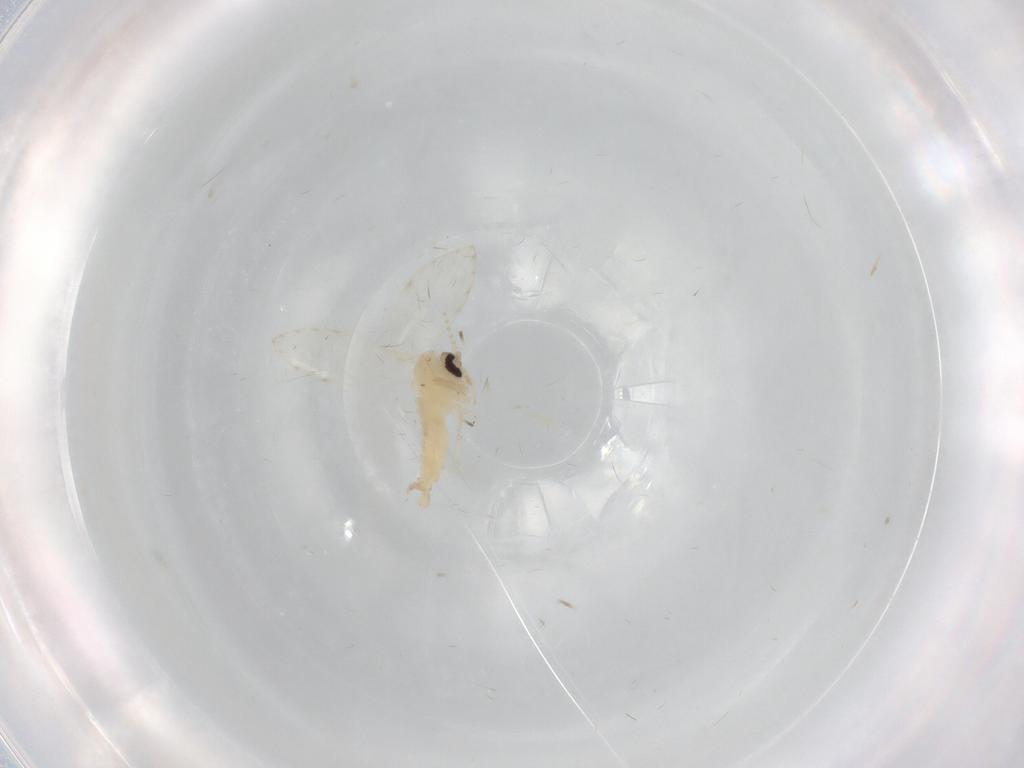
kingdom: Animalia
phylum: Arthropoda
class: Insecta
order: Diptera
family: Psychodidae
